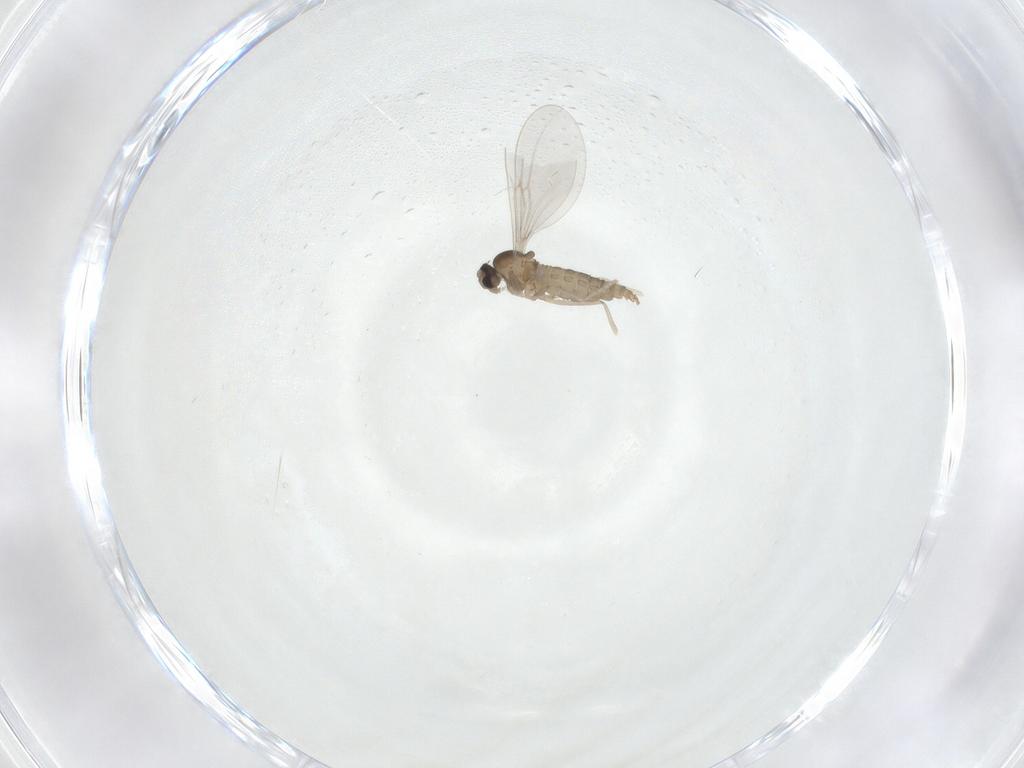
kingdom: Animalia
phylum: Arthropoda
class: Insecta
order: Diptera
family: Cecidomyiidae
